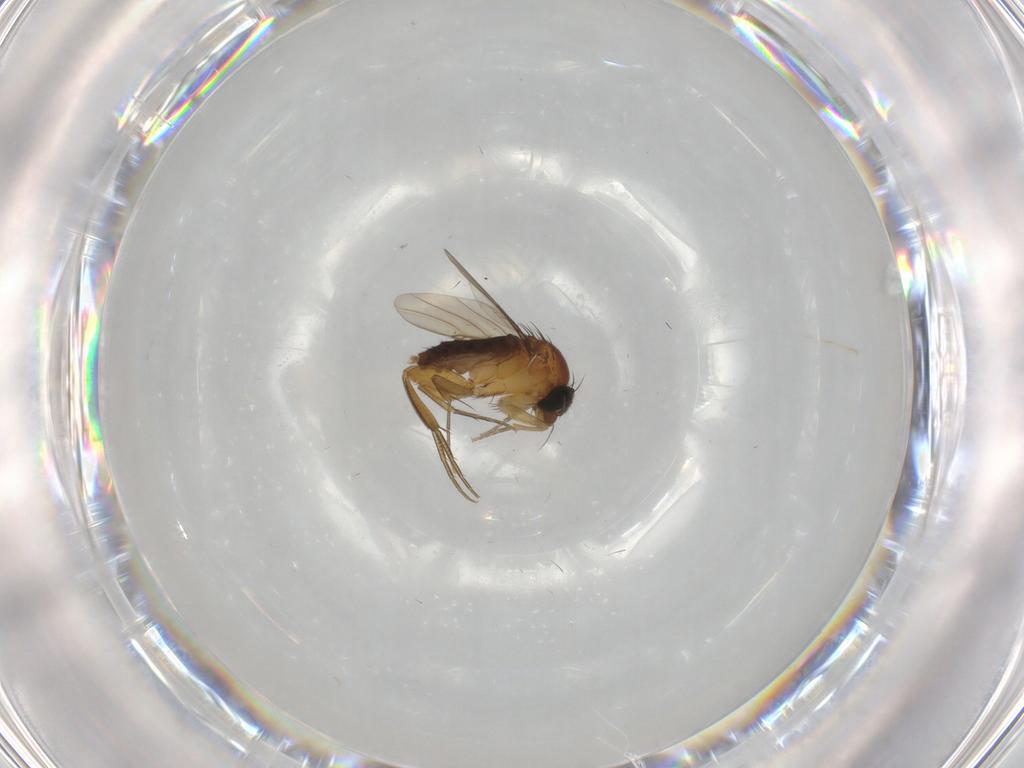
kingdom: Animalia
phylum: Arthropoda
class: Insecta
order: Diptera
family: Phoridae
